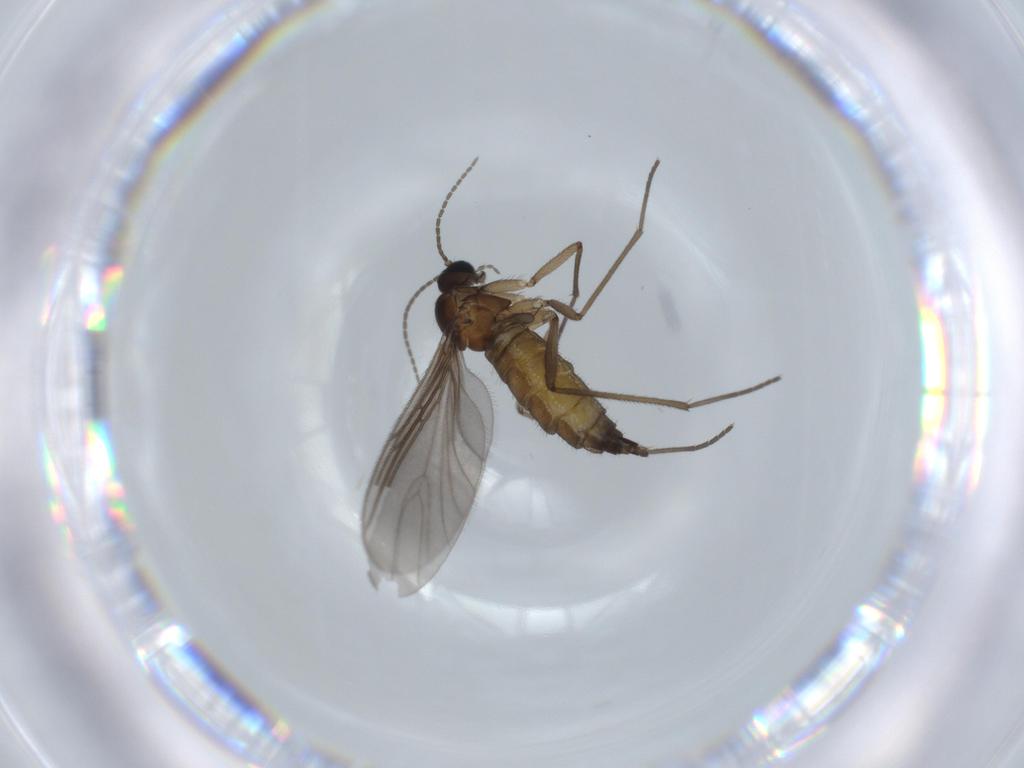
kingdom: Animalia
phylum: Arthropoda
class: Insecta
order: Diptera
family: Sciaridae
